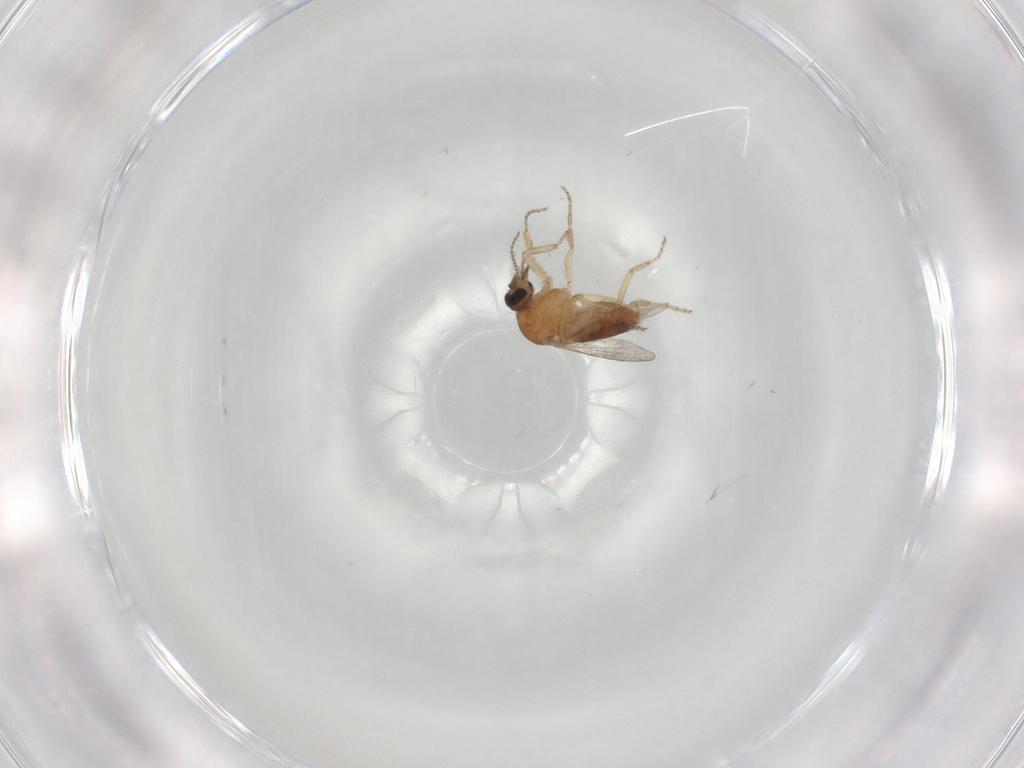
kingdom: Animalia
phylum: Arthropoda
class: Insecta
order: Diptera
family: Ceratopogonidae
